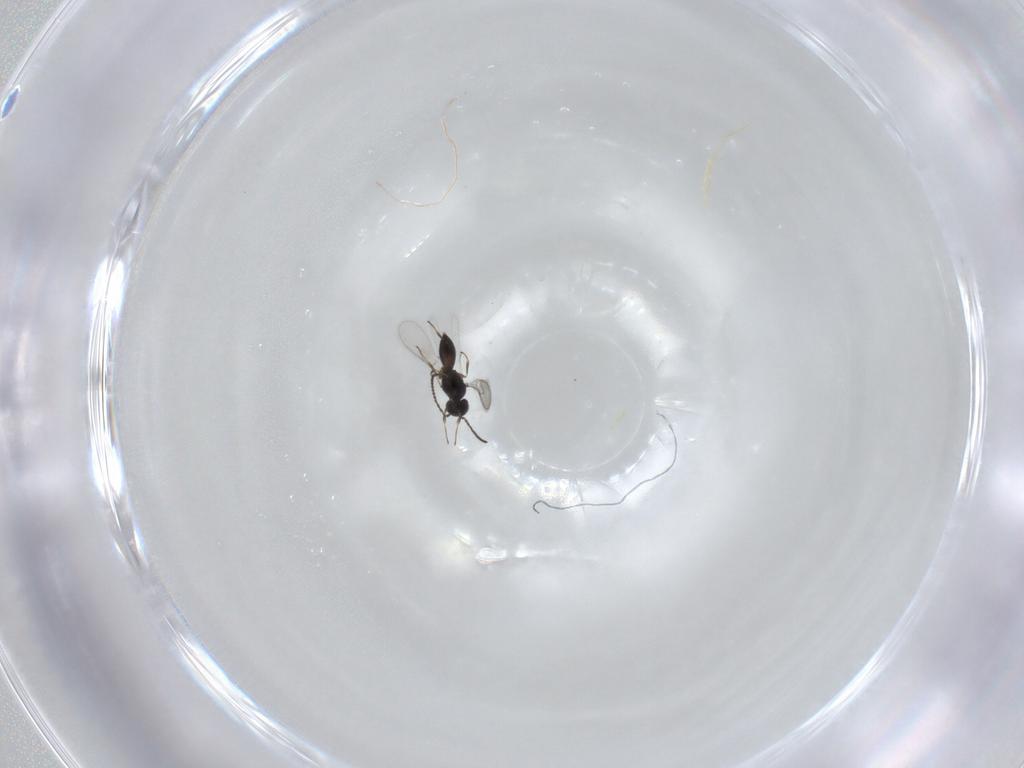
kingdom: Animalia
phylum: Arthropoda
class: Insecta
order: Hymenoptera
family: Scelionidae
